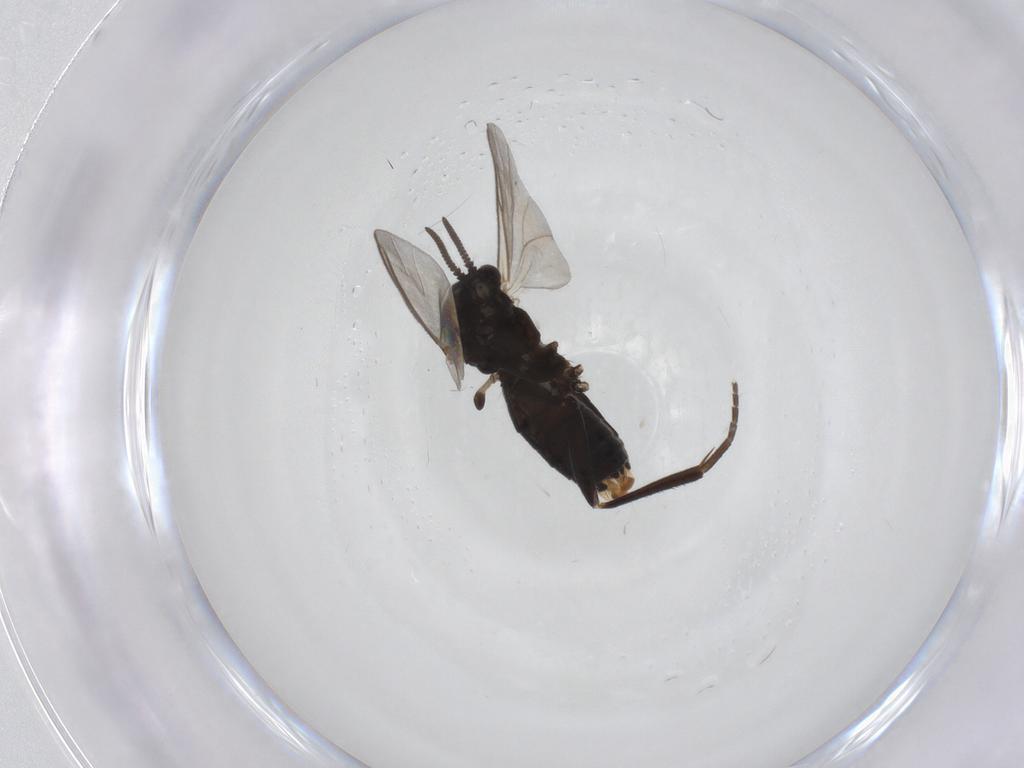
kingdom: Animalia
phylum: Arthropoda
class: Insecta
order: Diptera
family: Mycetophilidae
